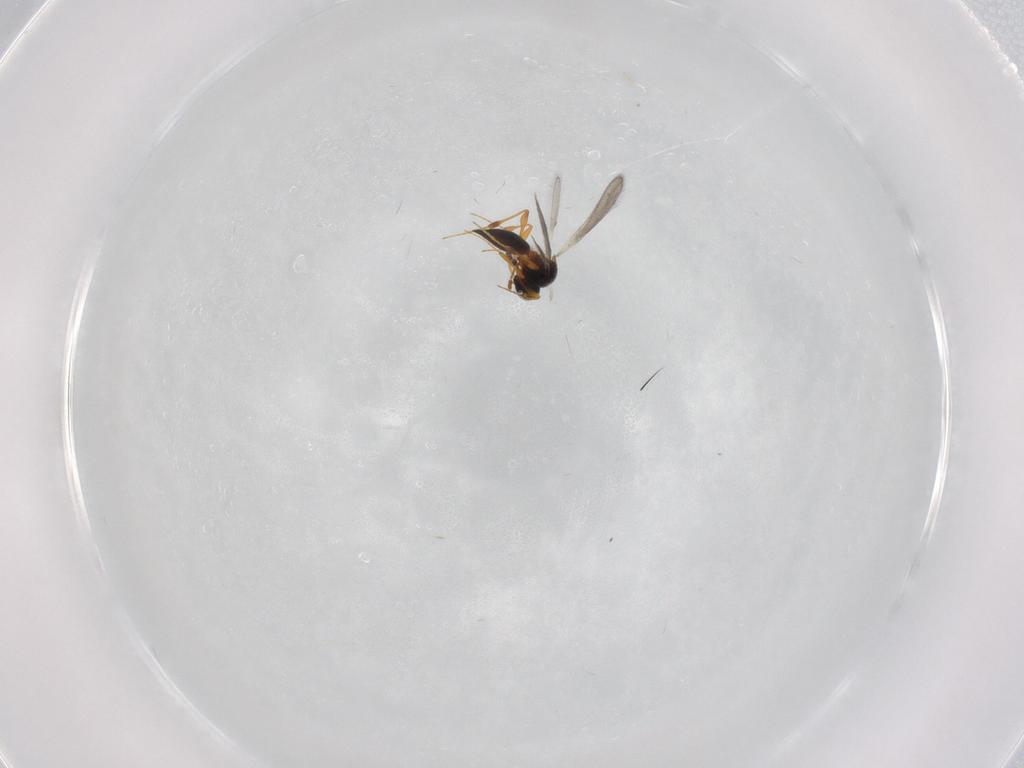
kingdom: Animalia
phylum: Arthropoda
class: Insecta
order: Hymenoptera
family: Platygastridae
